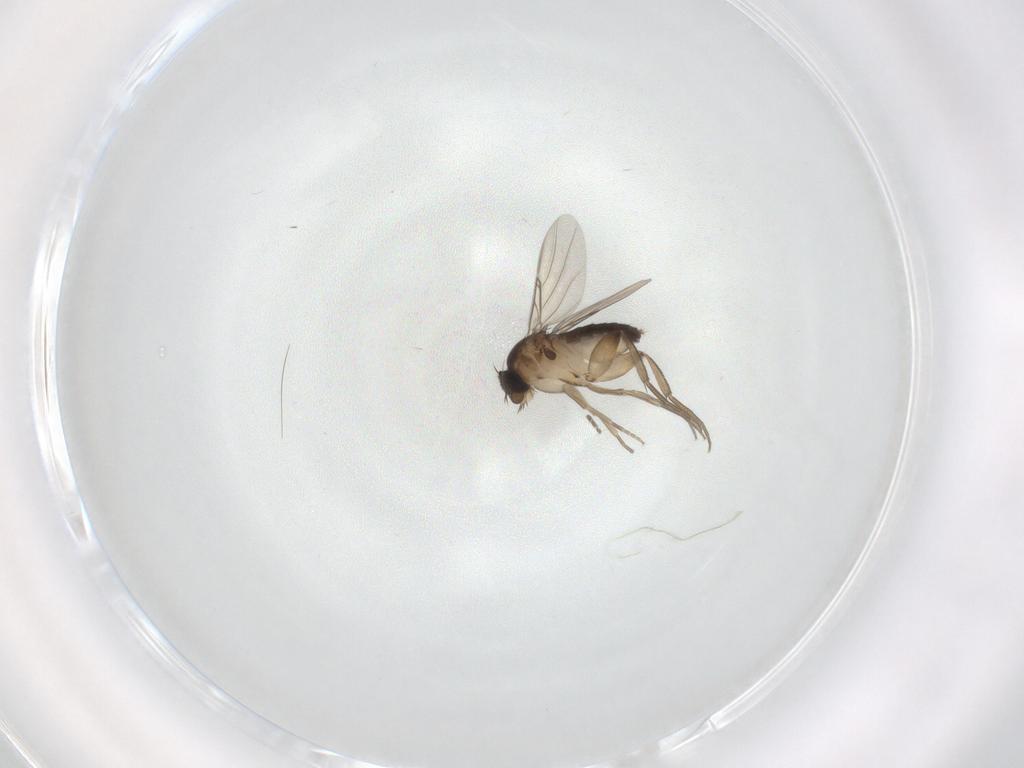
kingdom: Animalia
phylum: Arthropoda
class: Insecta
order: Diptera
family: Phoridae
